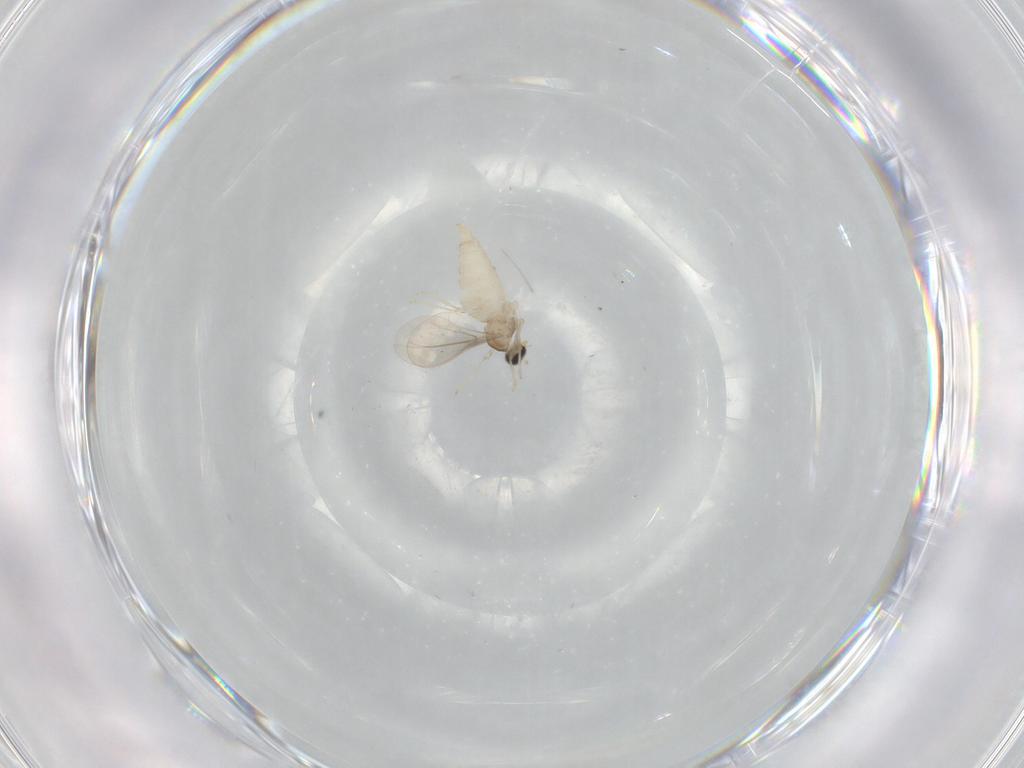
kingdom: Animalia
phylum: Arthropoda
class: Insecta
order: Diptera
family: Cecidomyiidae
